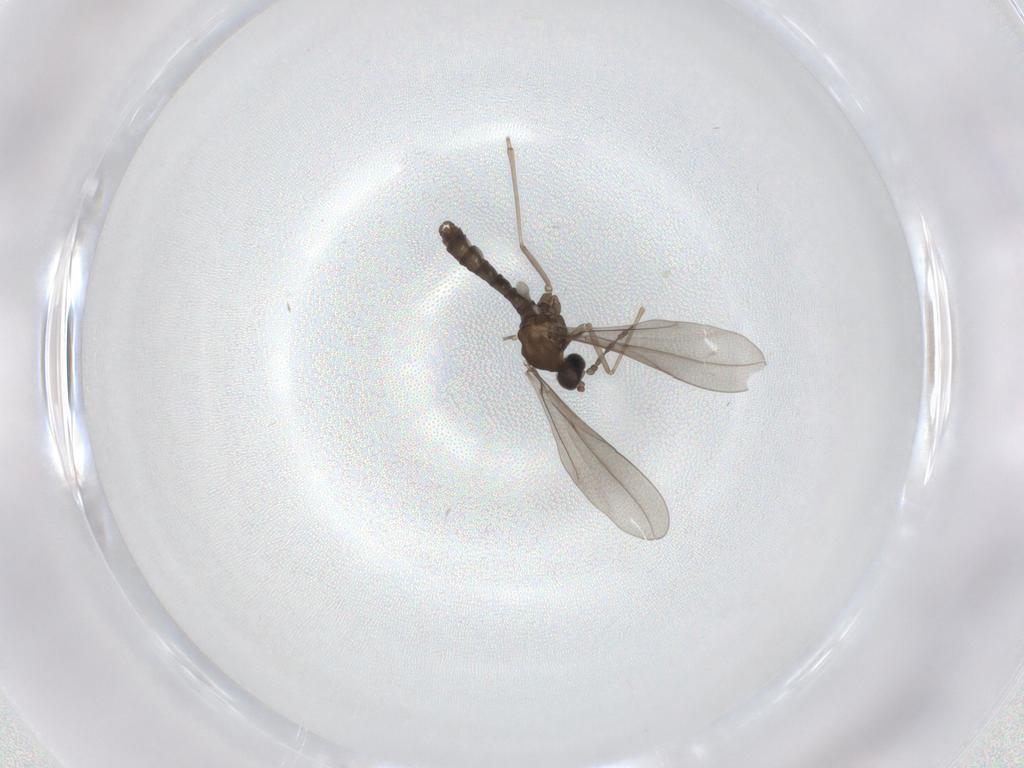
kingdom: Animalia
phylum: Arthropoda
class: Insecta
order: Diptera
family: Cecidomyiidae
